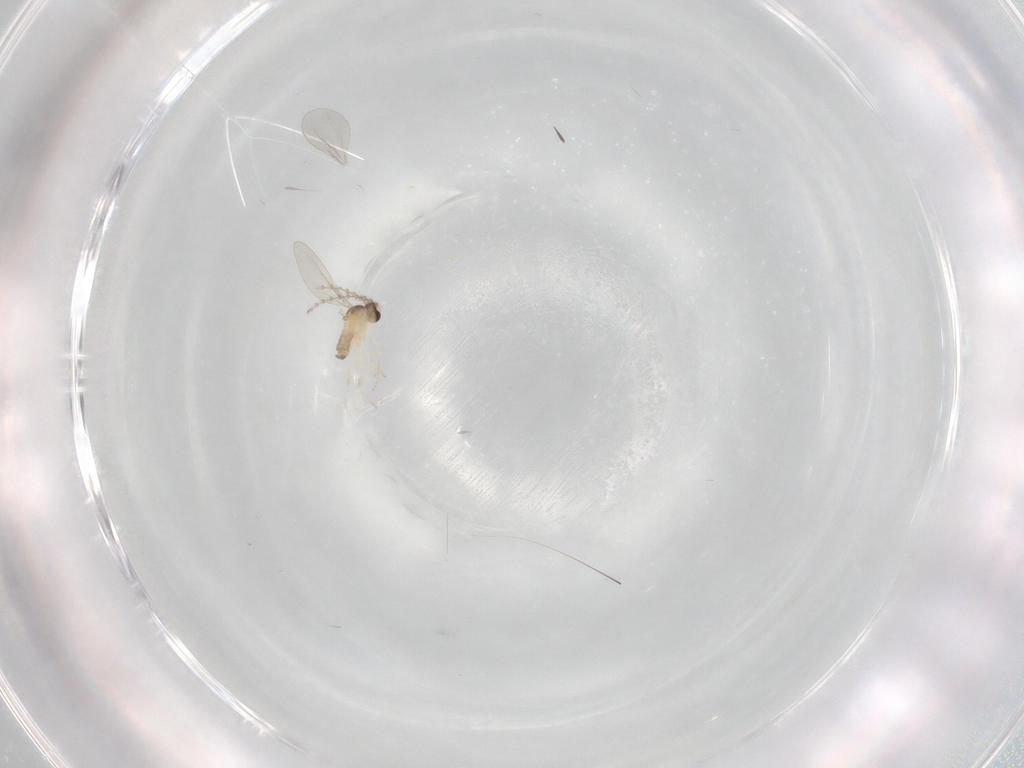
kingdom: Animalia
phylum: Arthropoda
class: Insecta
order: Diptera
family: Cecidomyiidae
